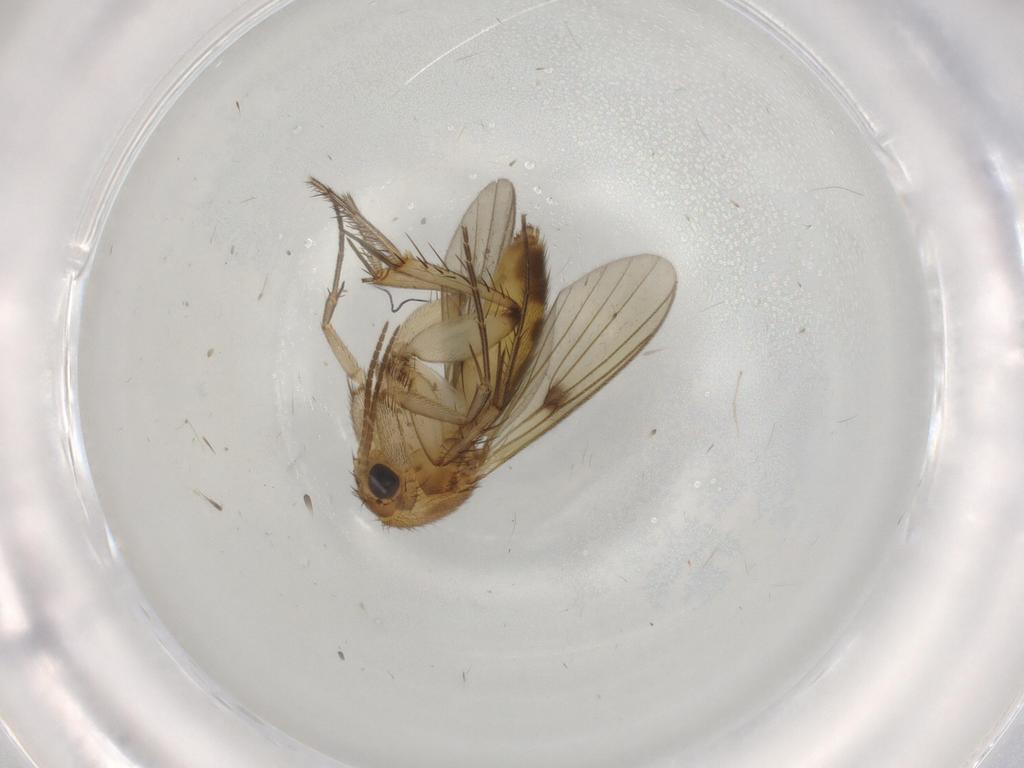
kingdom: Animalia
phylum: Arthropoda
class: Insecta
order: Diptera
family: Cecidomyiidae
